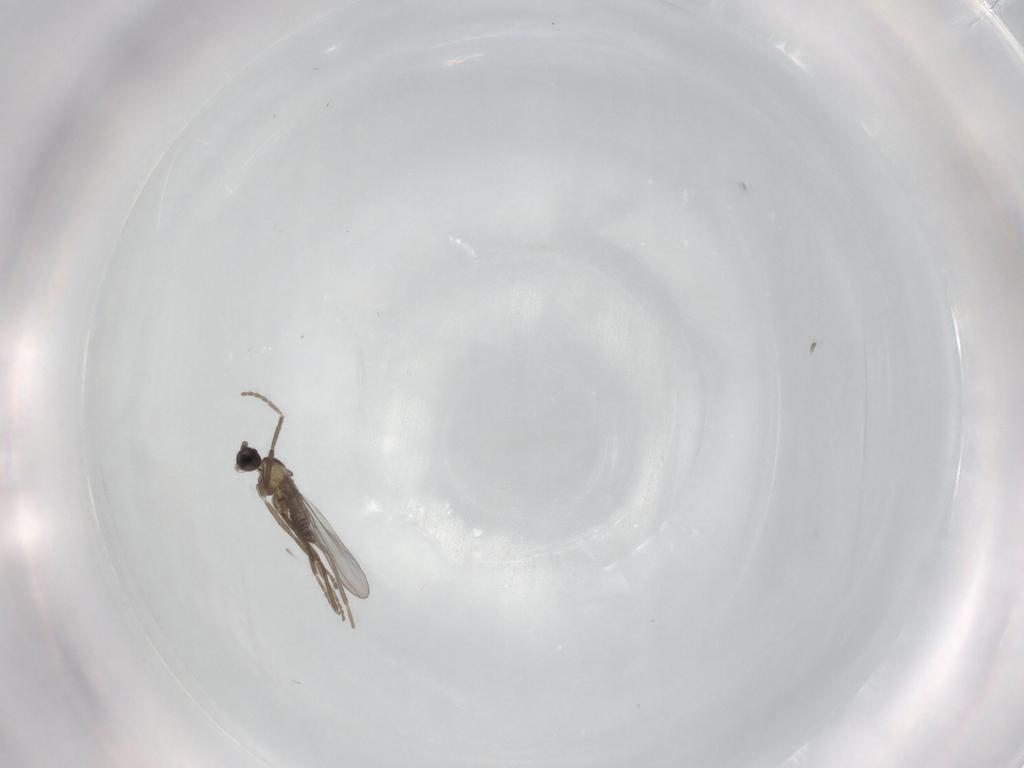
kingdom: Animalia
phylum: Arthropoda
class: Insecta
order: Diptera
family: Cecidomyiidae
